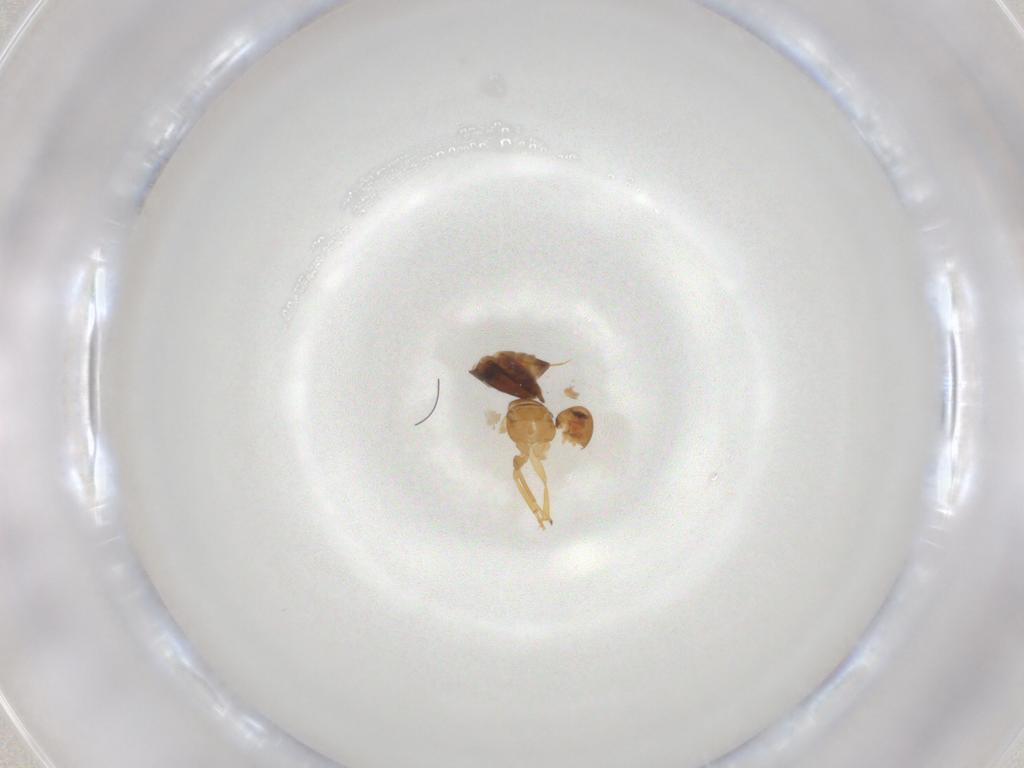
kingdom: Animalia
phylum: Arthropoda
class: Insecta
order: Hymenoptera
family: Encyrtidae
